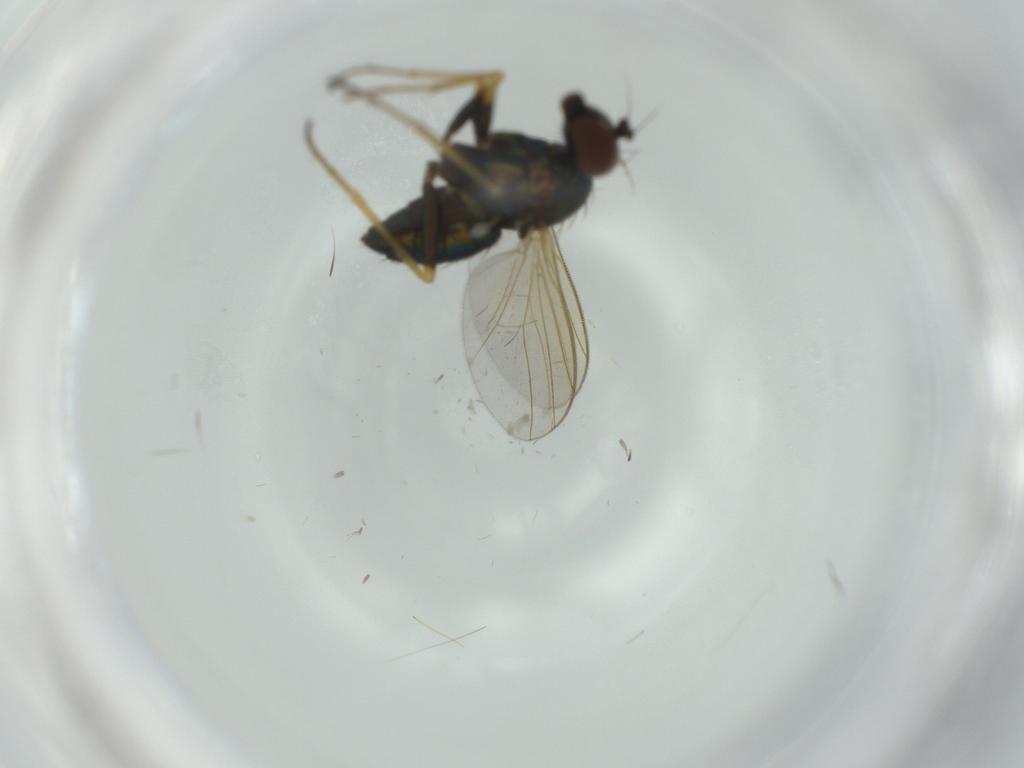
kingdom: Animalia
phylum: Arthropoda
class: Insecta
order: Diptera
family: Dolichopodidae
